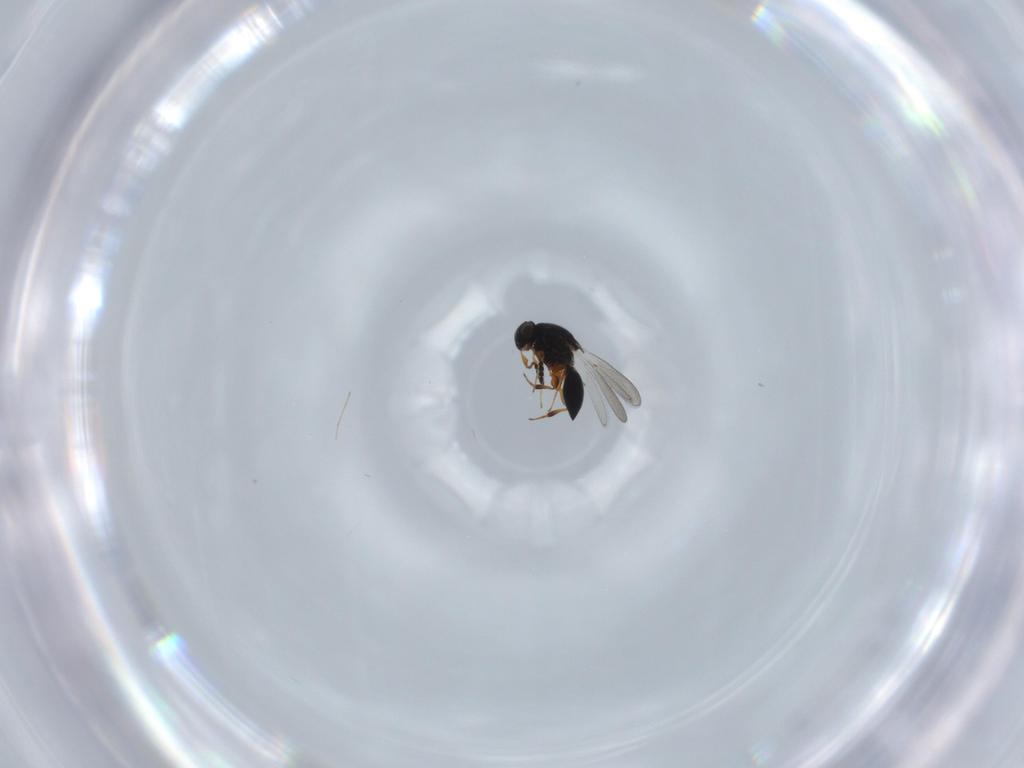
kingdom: Animalia
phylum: Arthropoda
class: Insecta
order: Hymenoptera
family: Platygastridae
